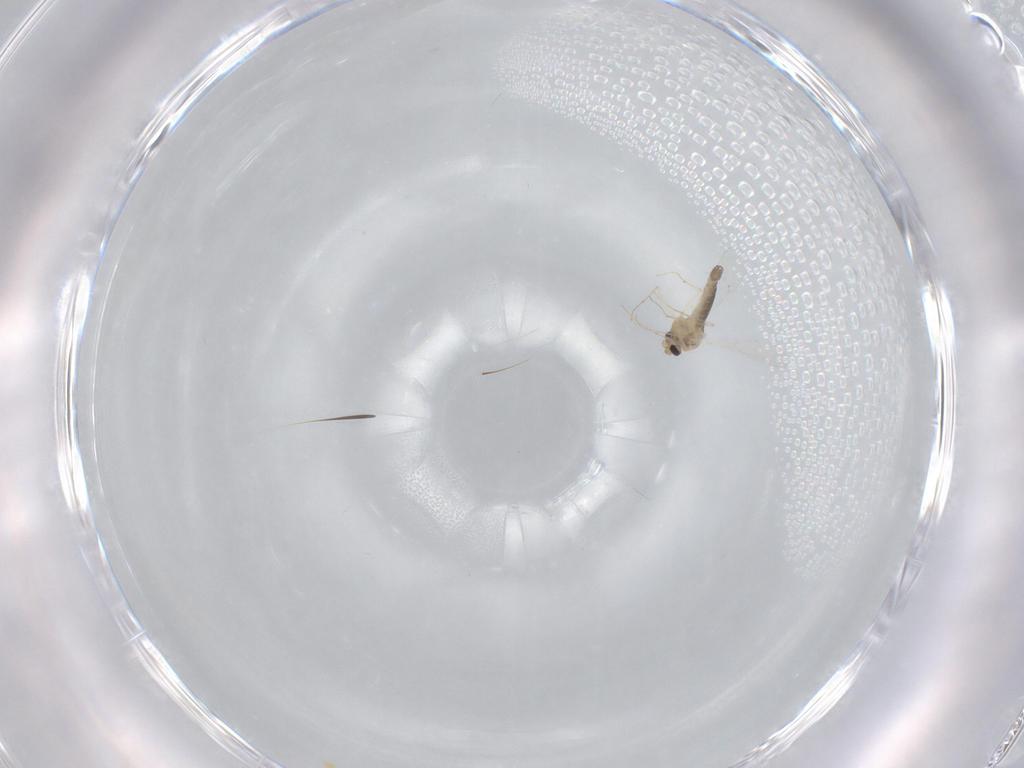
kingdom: Animalia
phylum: Arthropoda
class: Insecta
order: Diptera
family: Chironomidae
